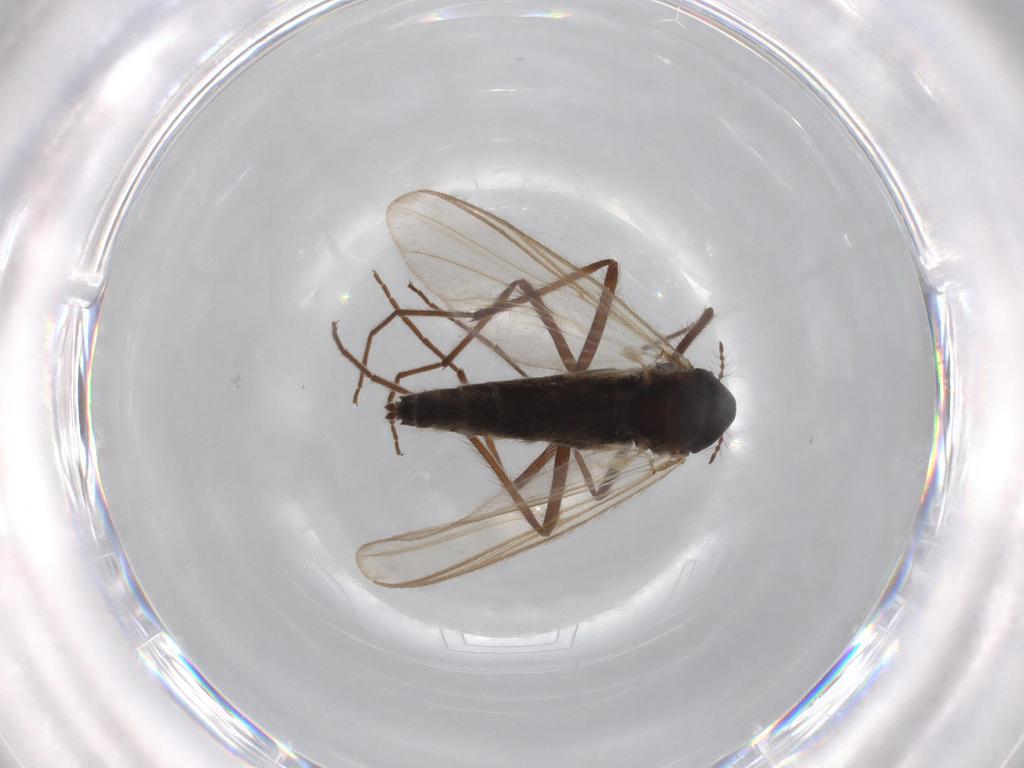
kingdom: Animalia
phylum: Arthropoda
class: Insecta
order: Diptera
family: Chironomidae
